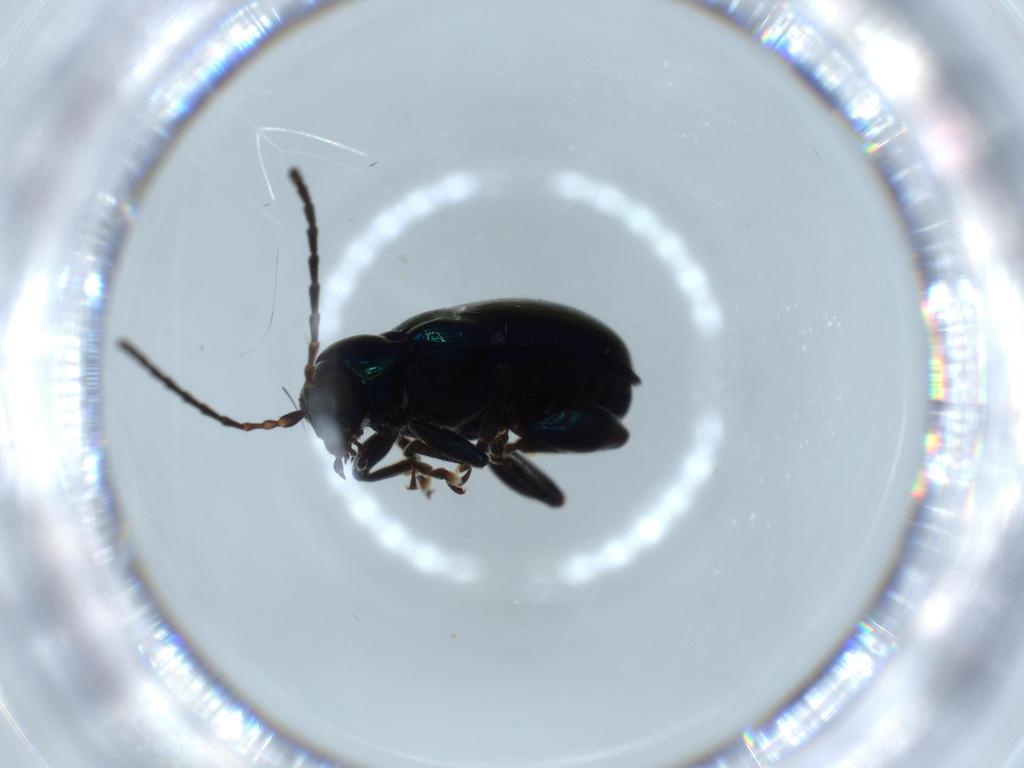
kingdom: Animalia
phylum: Arthropoda
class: Insecta
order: Coleoptera
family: Chrysomelidae
